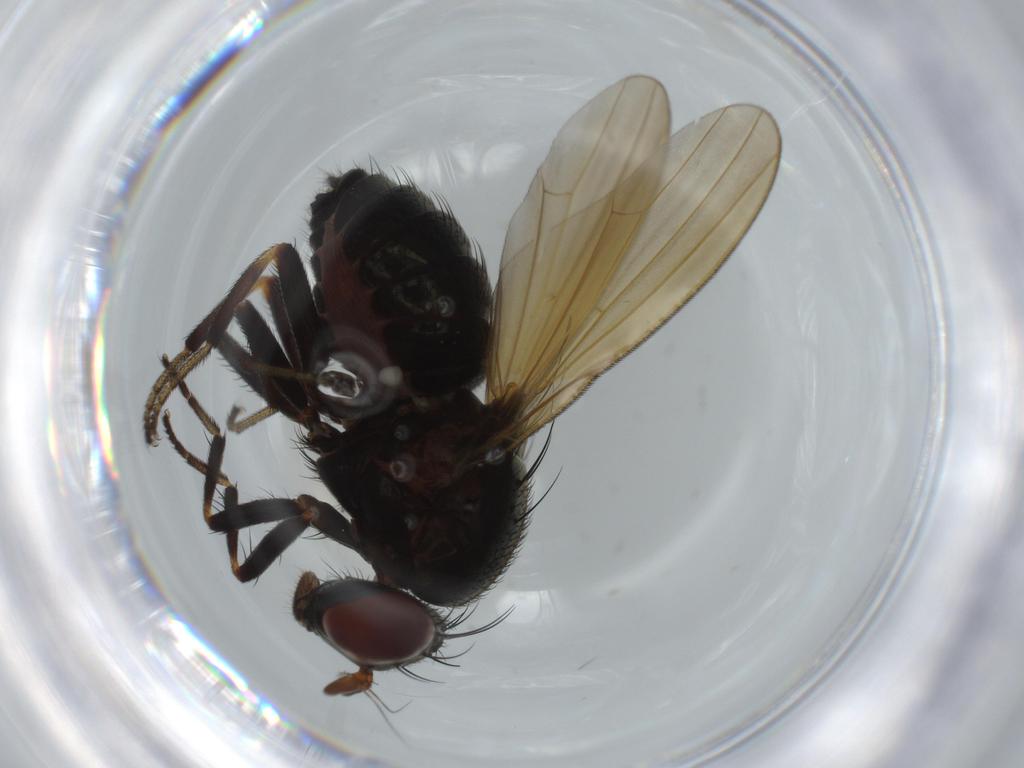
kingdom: Animalia
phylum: Arthropoda
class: Insecta
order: Diptera
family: Lauxaniidae
